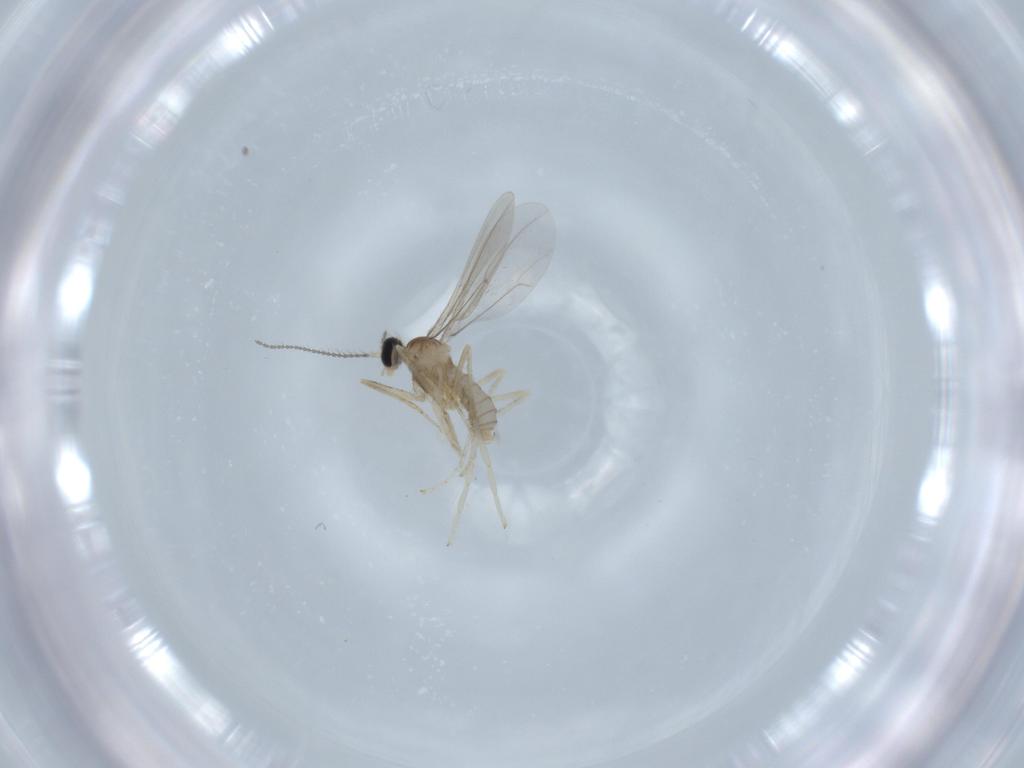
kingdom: Animalia
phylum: Arthropoda
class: Insecta
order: Diptera
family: Cecidomyiidae
